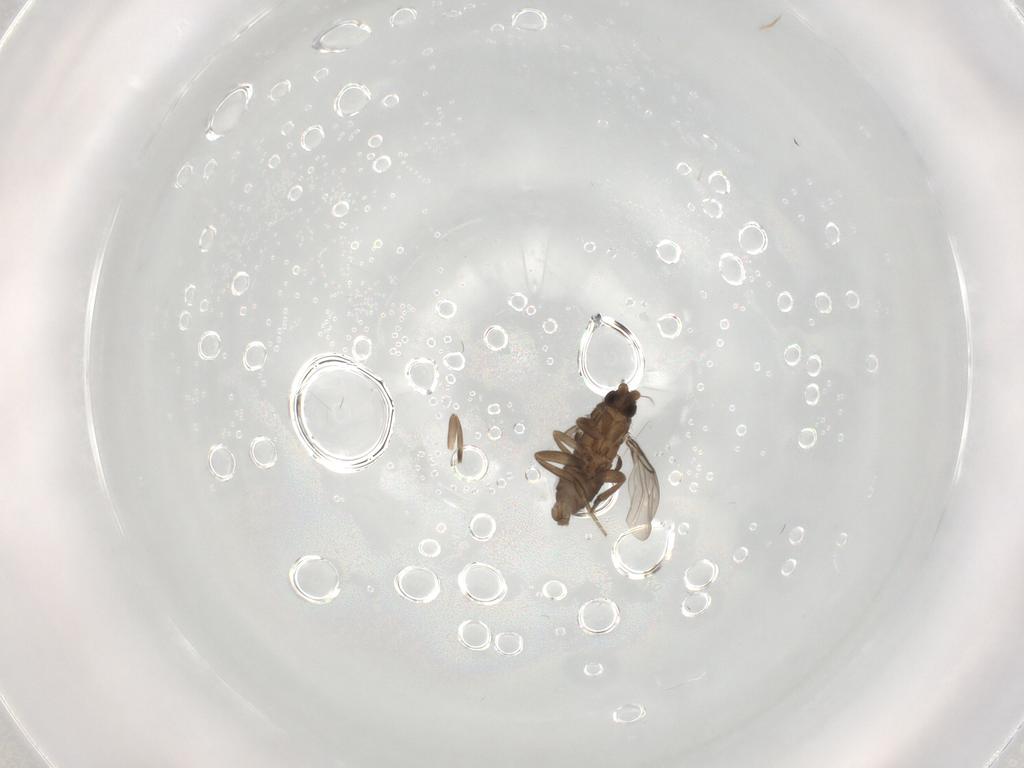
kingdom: Animalia
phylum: Arthropoda
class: Insecta
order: Diptera
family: Phoridae
